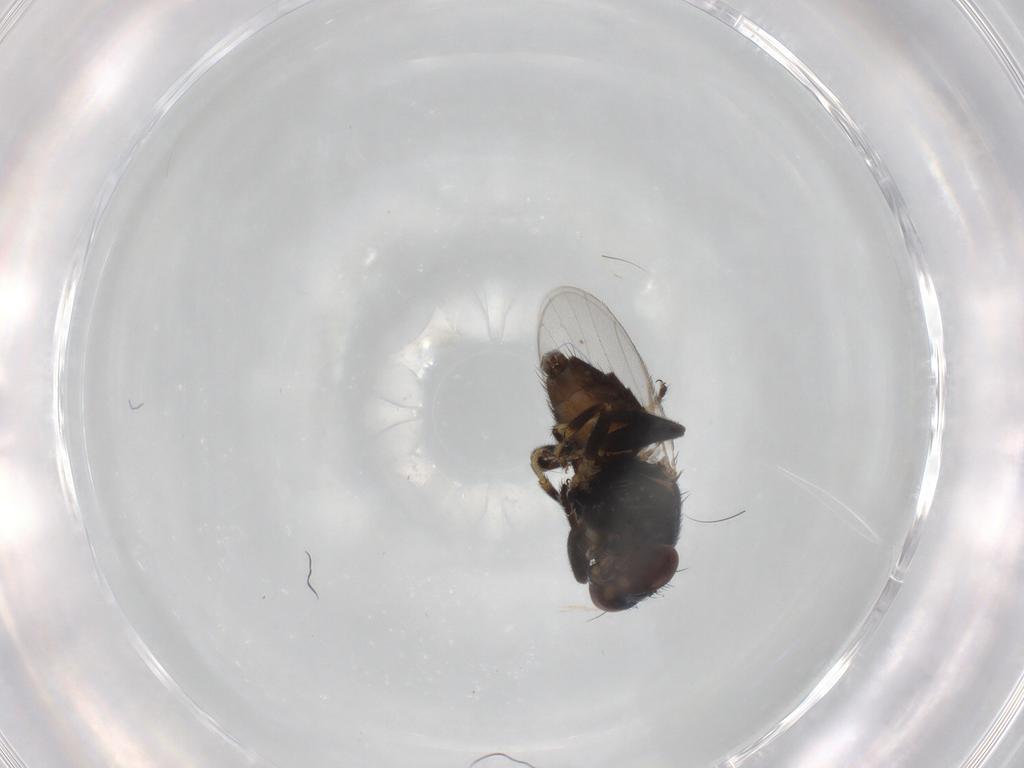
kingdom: Animalia
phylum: Arthropoda
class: Insecta
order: Diptera
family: Chloropidae
